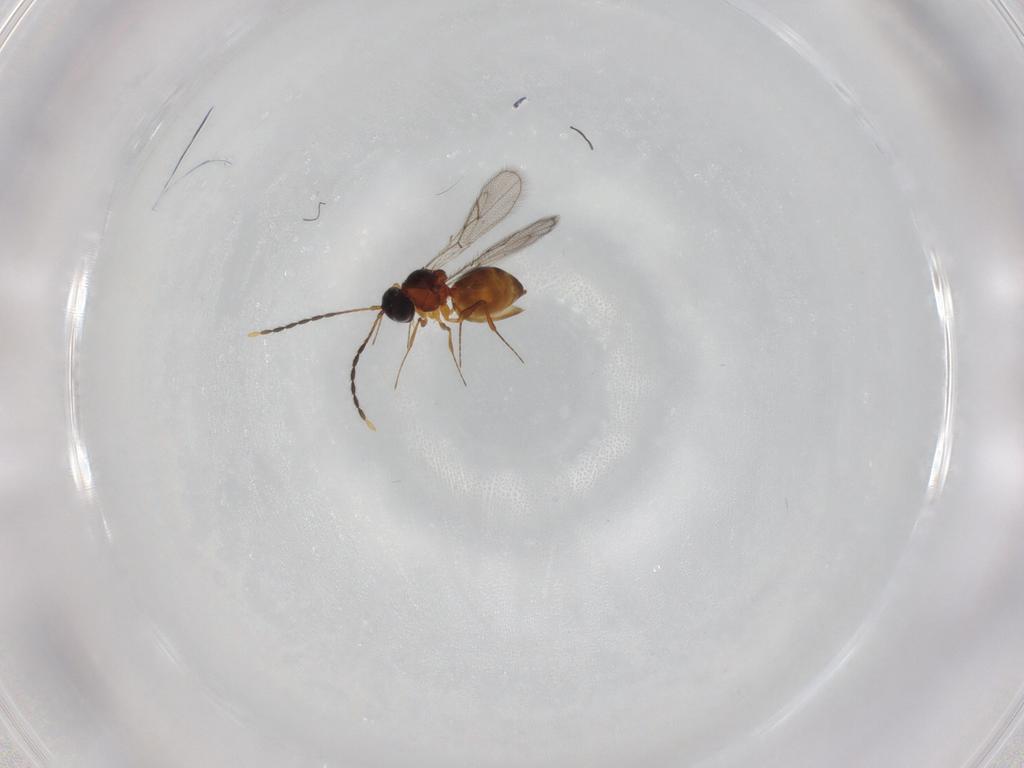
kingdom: Animalia
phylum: Arthropoda
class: Insecta
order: Hymenoptera
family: Figitidae
